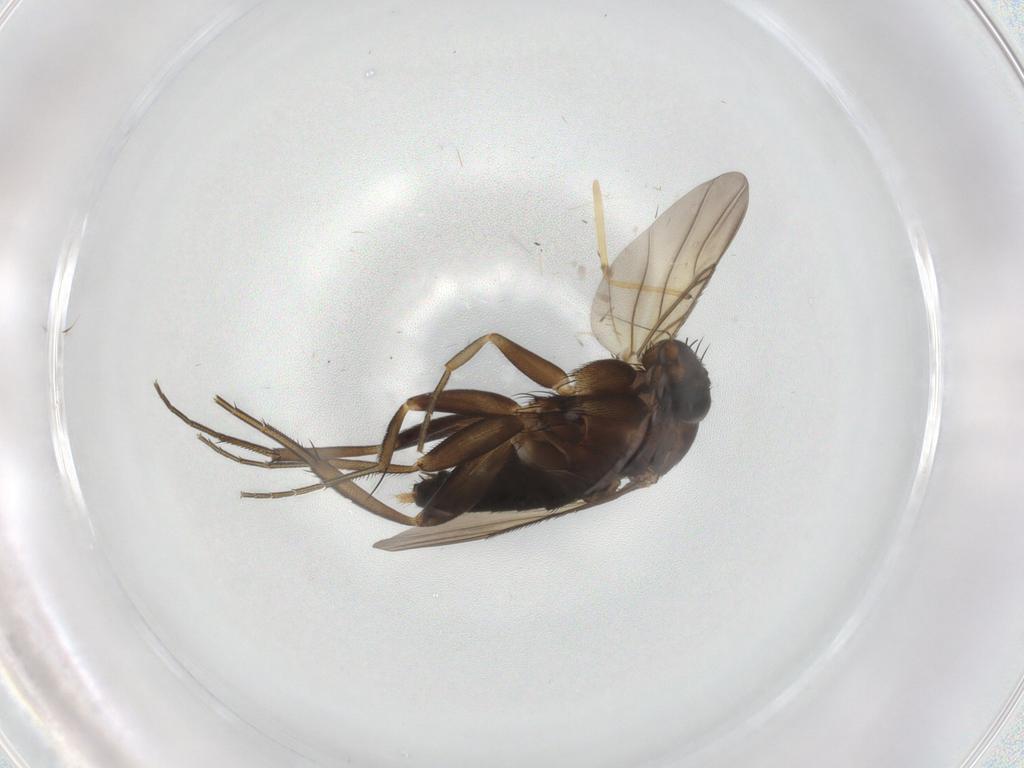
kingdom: Animalia
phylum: Arthropoda
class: Insecta
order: Diptera
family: Phoridae
